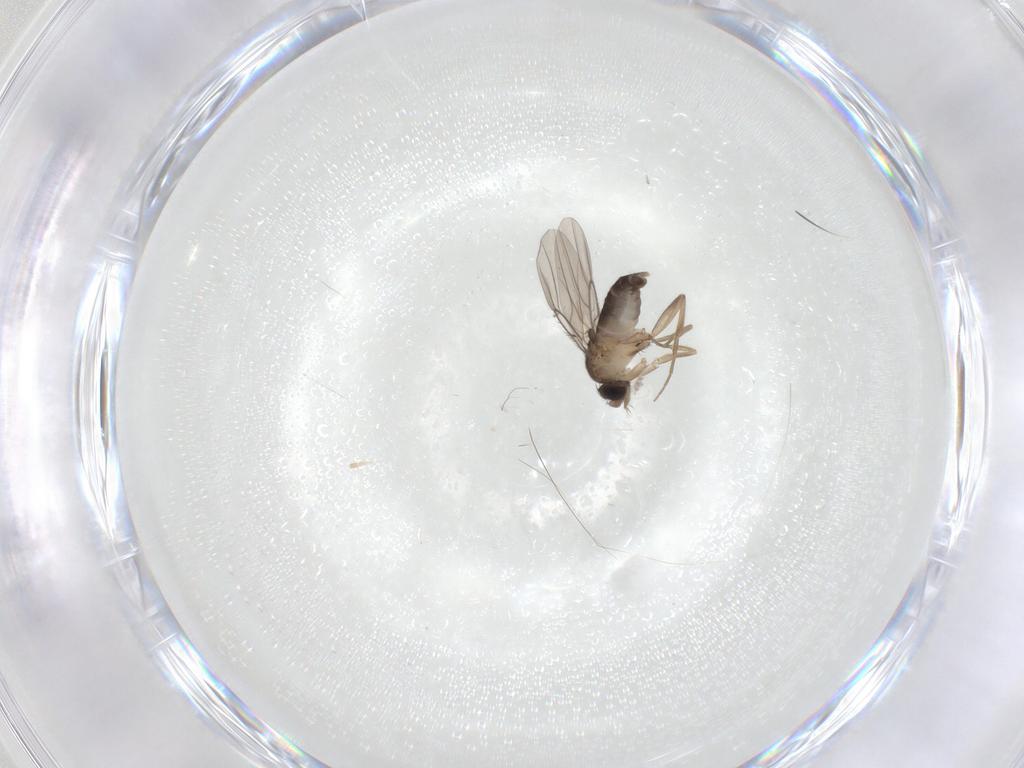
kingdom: Animalia
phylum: Arthropoda
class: Insecta
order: Diptera
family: Phoridae
